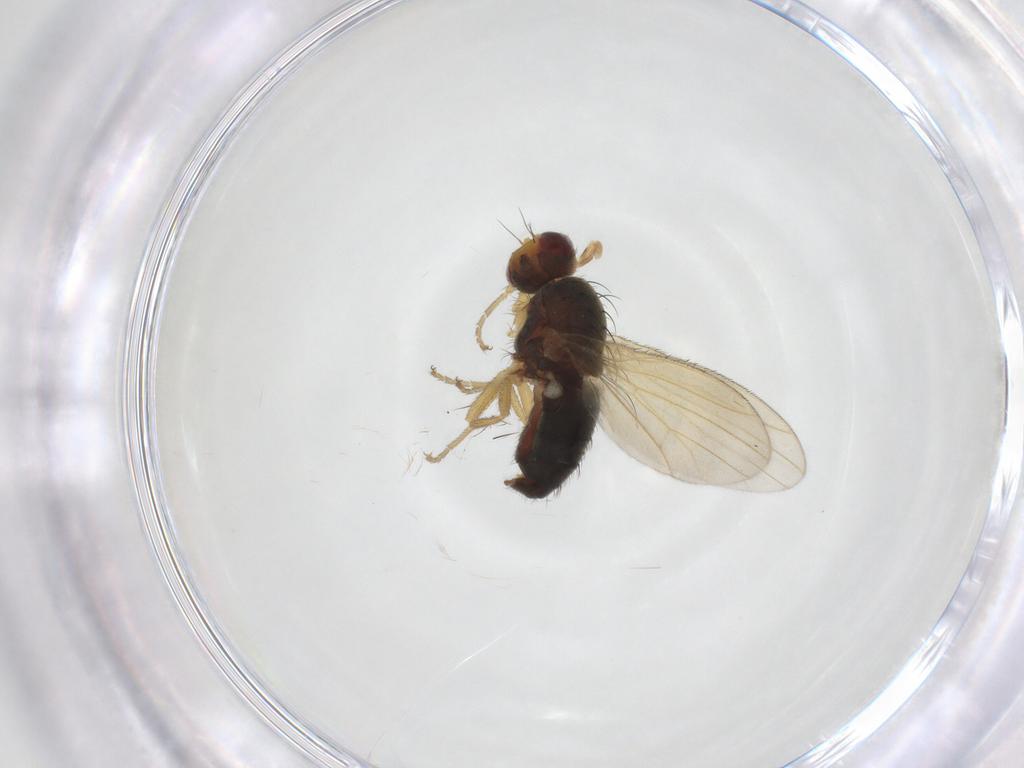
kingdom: Animalia
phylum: Arthropoda
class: Insecta
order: Diptera
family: Heleomyzidae
